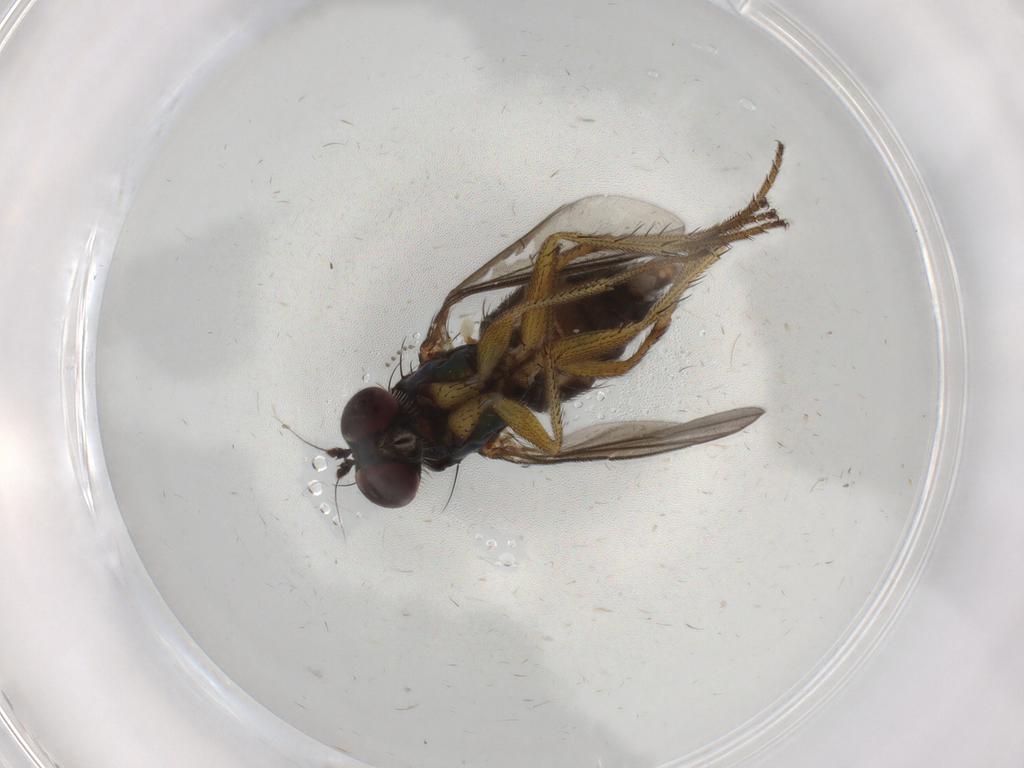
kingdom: Animalia
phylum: Arthropoda
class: Insecta
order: Diptera
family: Dolichopodidae
